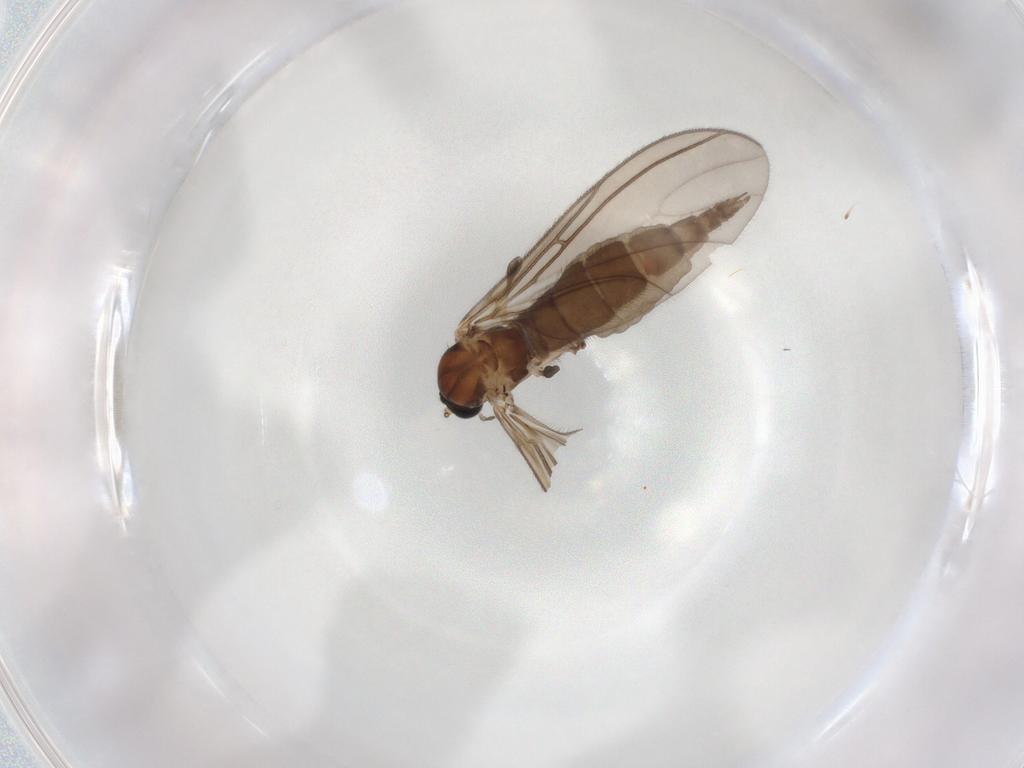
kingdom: Animalia
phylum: Arthropoda
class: Insecta
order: Diptera
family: Sciaridae
